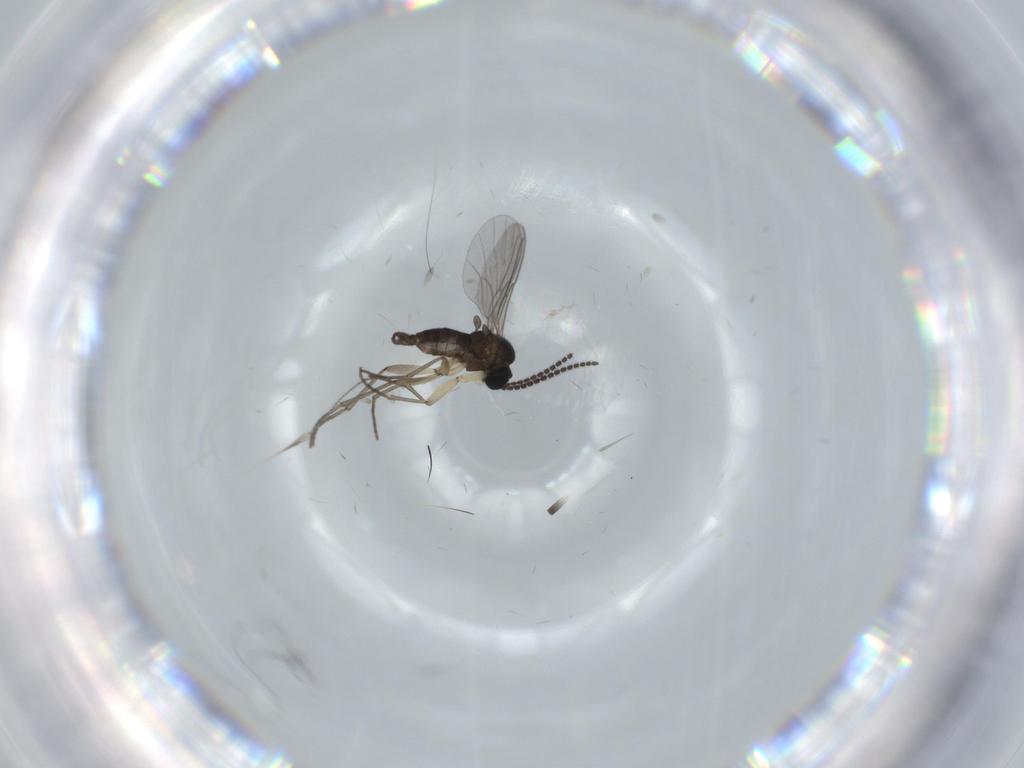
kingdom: Animalia
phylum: Arthropoda
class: Insecta
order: Diptera
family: Sciaridae
